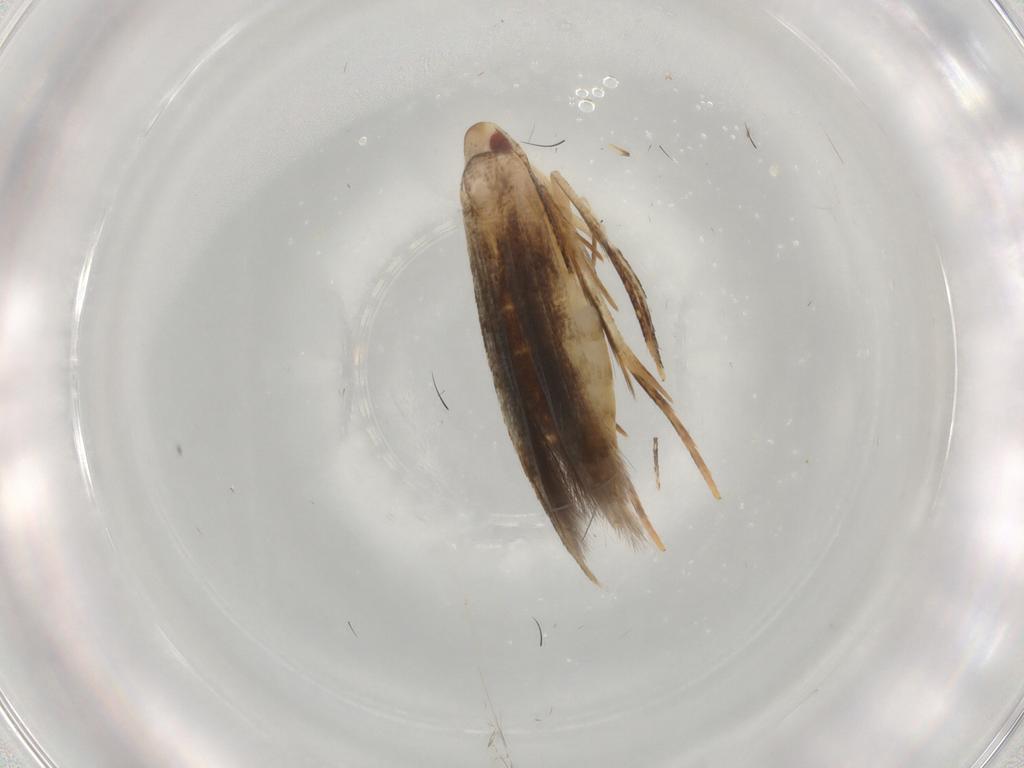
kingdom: Animalia
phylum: Arthropoda
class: Insecta
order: Lepidoptera
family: Gelechiidae
